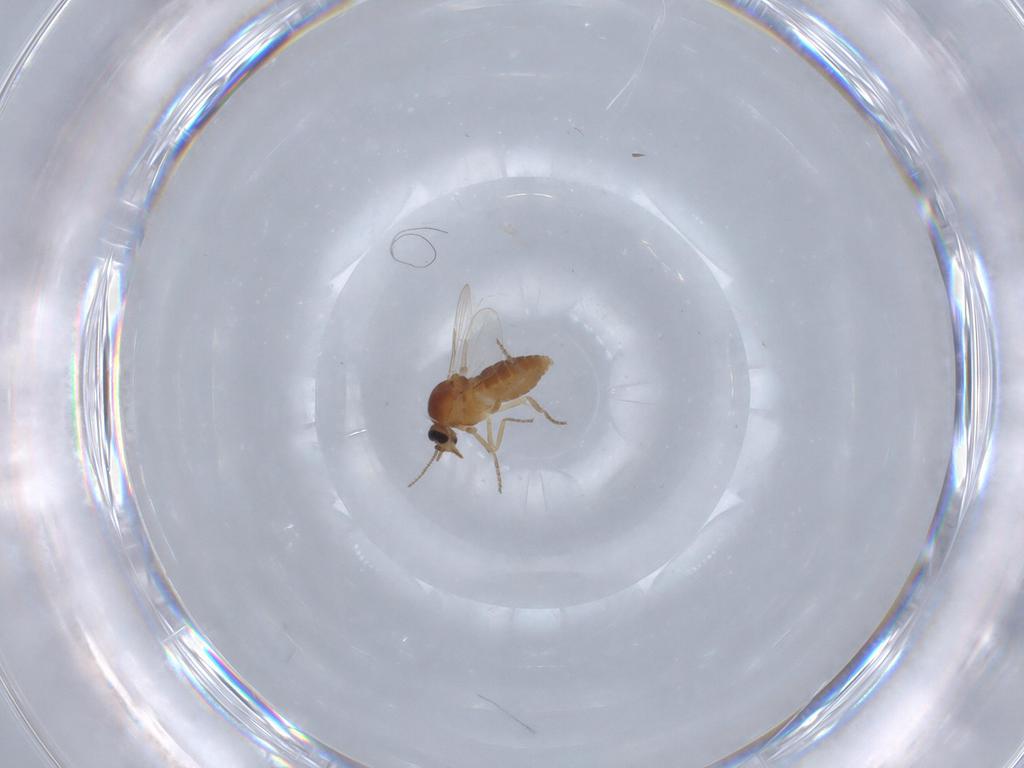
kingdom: Animalia
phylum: Arthropoda
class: Insecta
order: Diptera
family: Ceratopogonidae
